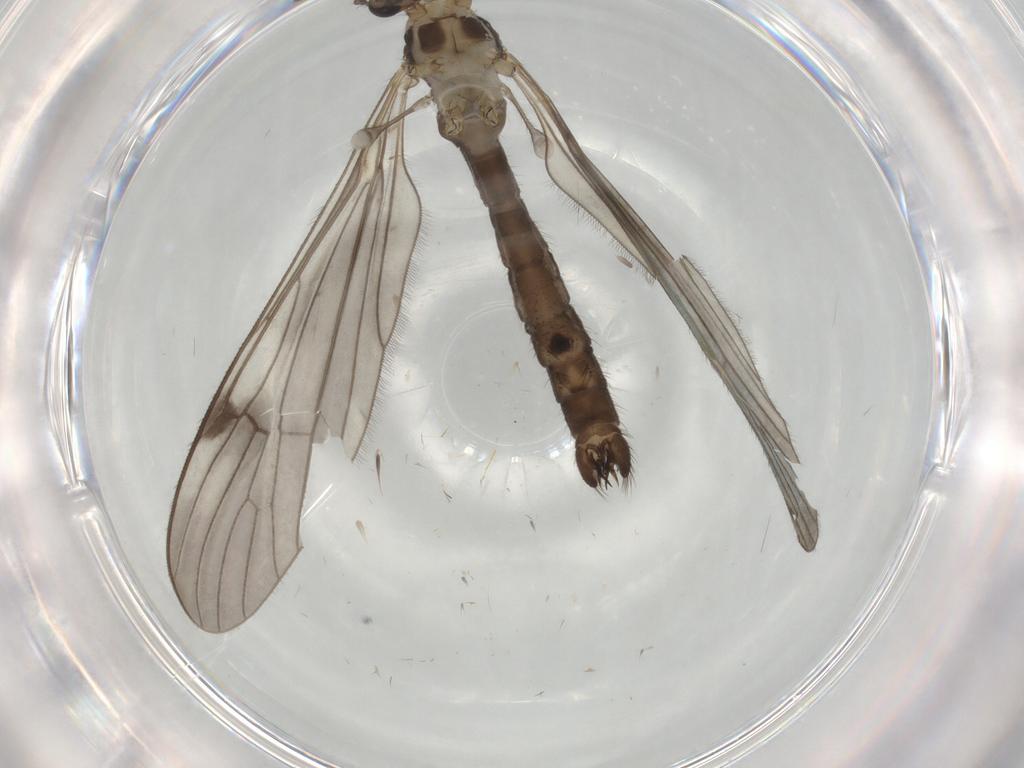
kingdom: Animalia
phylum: Arthropoda
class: Insecta
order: Diptera
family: Limoniidae
